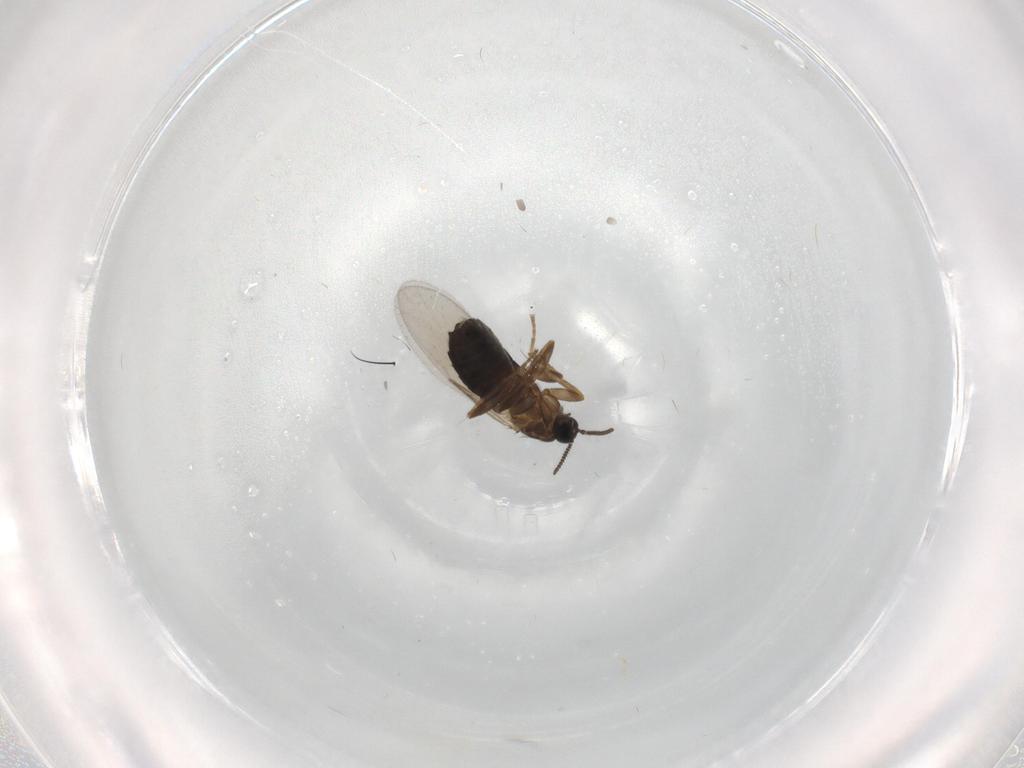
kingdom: Animalia
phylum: Arthropoda
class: Insecta
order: Diptera
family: Scatopsidae
